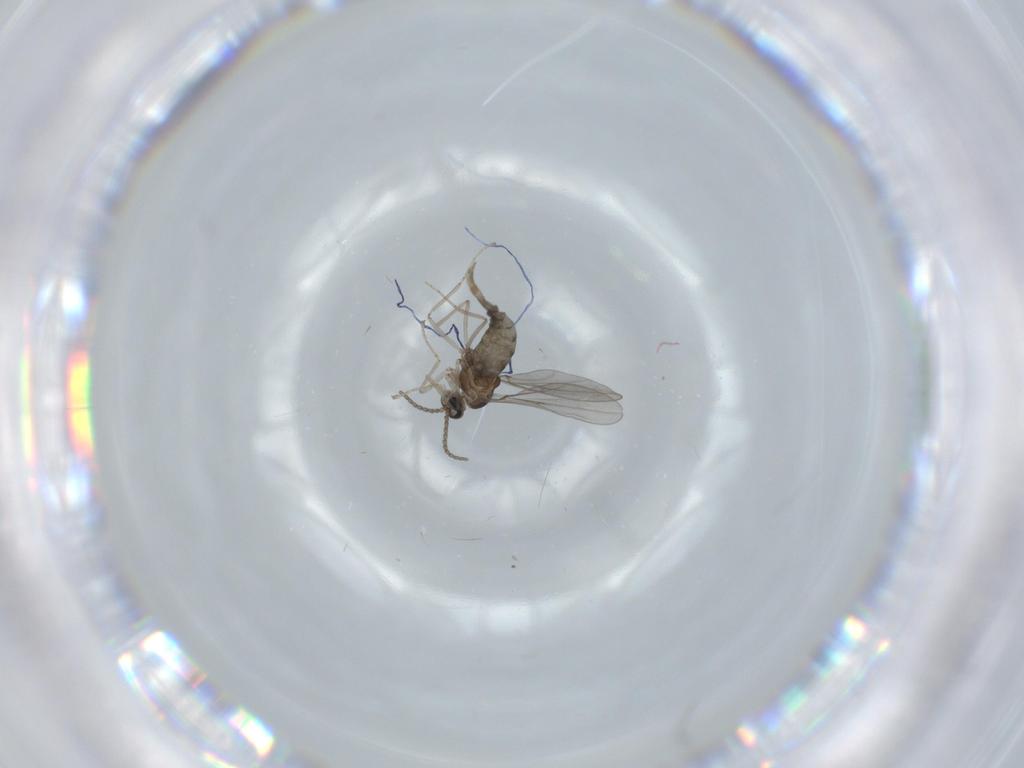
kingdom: Animalia
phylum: Arthropoda
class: Insecta
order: Diptera
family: Cecidomyiidae
